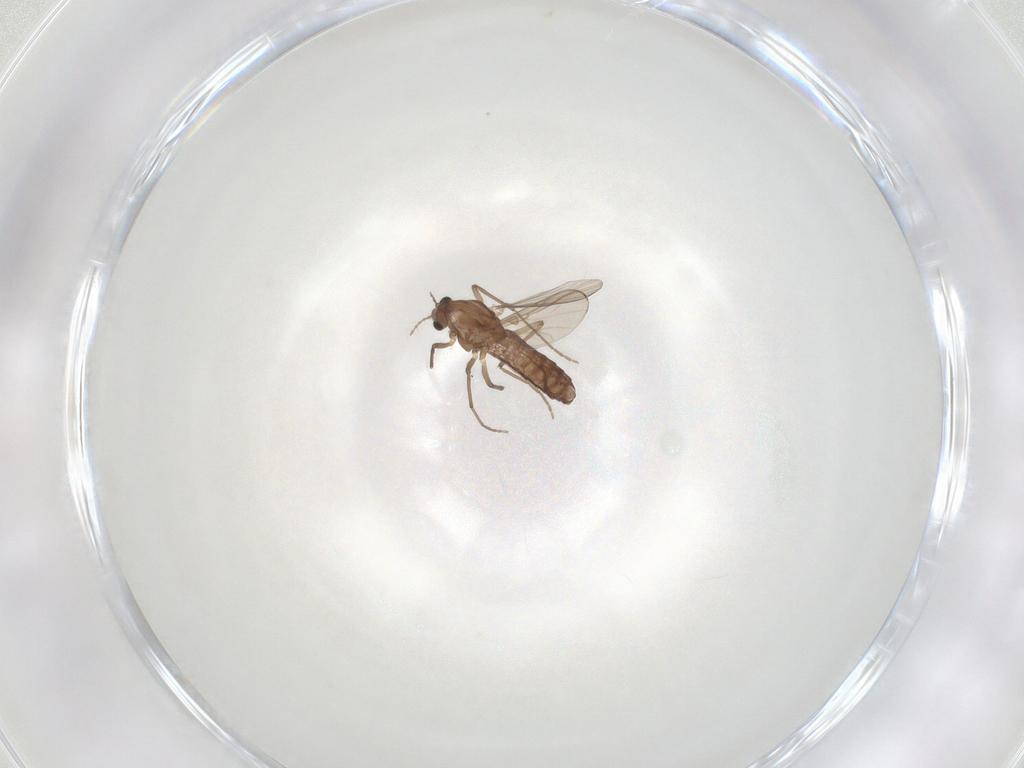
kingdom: Animalia
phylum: Arthropoda
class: Insecta
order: Diptera
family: Chironomidae
